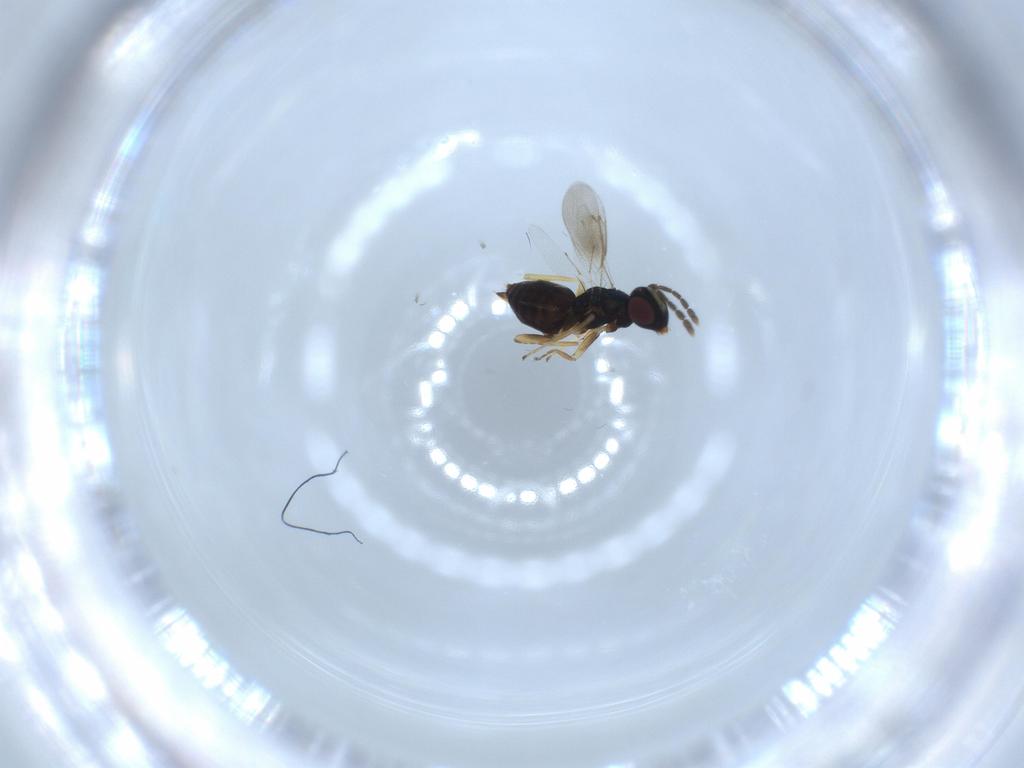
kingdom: Animalia
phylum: Arthropoda
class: Insecta
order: Hymenoptera
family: Eulophidae
